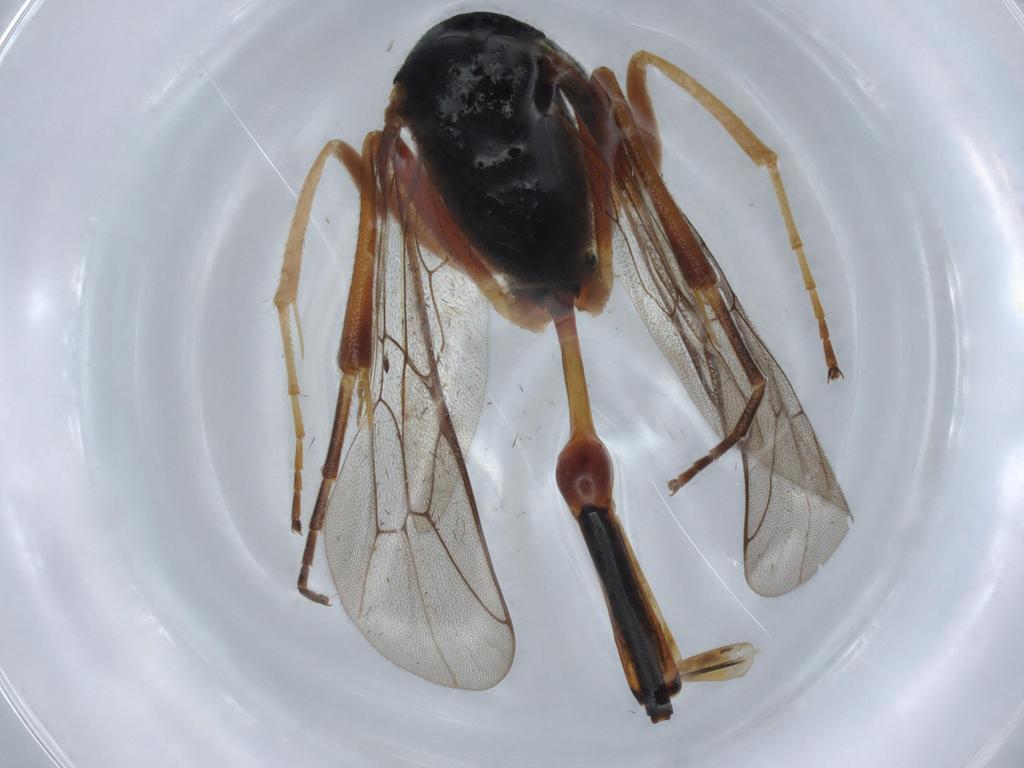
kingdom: Animalia
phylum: Arthropoda
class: Insecta
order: Hymenoptera
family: Ichneumonidae
